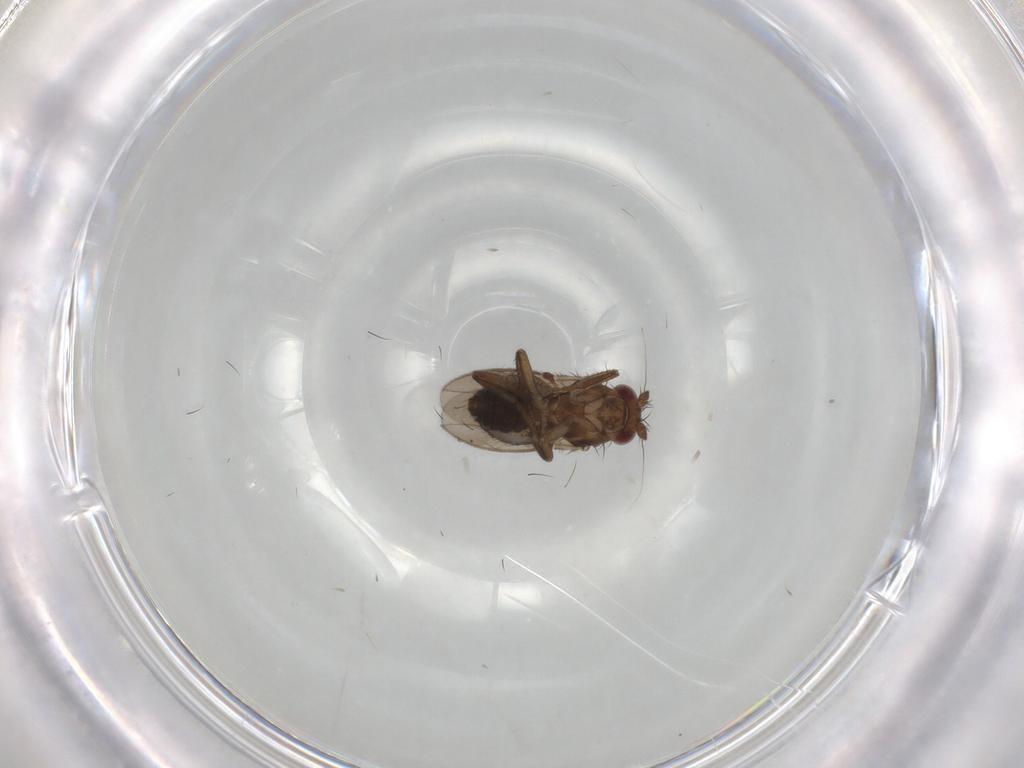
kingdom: Animalia
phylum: Arthropoda
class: Insecta
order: Diptera
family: Sphaeroceridae
